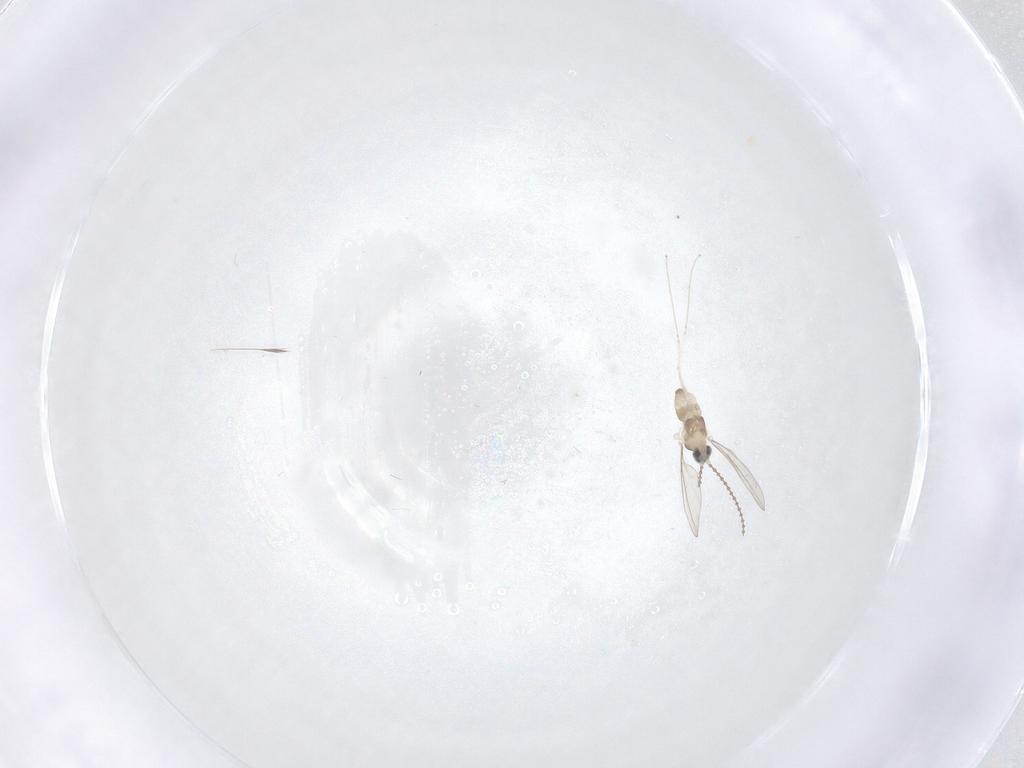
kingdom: Animalia
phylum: Arthropoda
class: Insecta
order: Diptera
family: Cecidomyiidae
